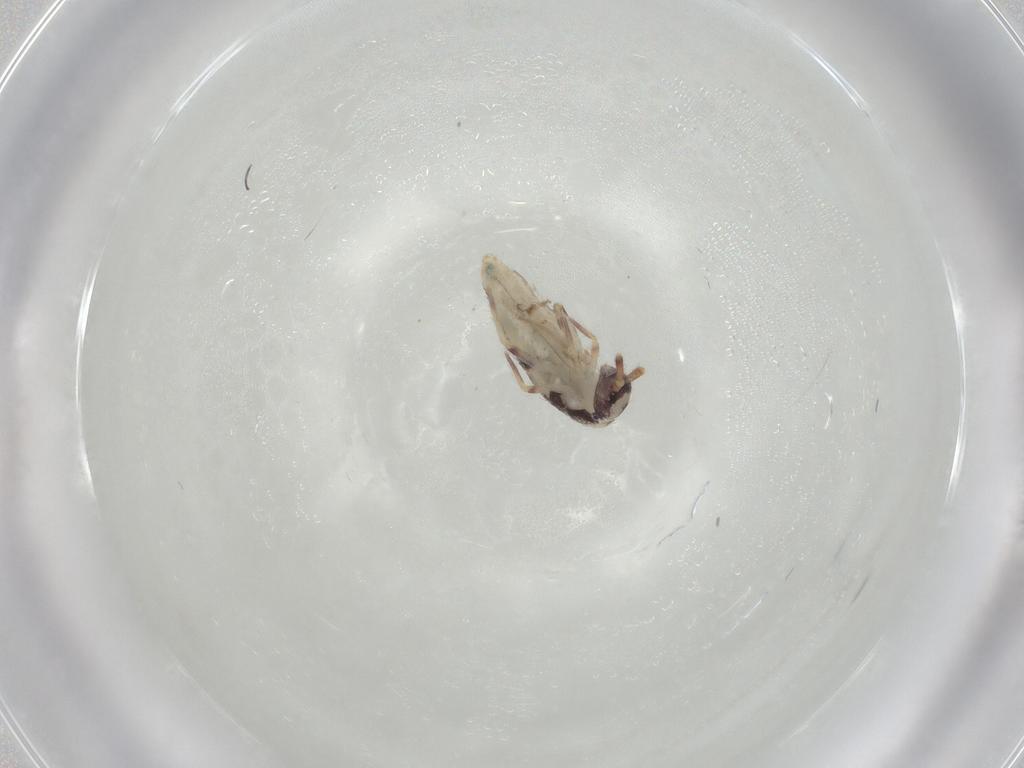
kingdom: Animalia
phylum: Arthropoda
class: Collembola
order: Entomobryomorpha
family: Entomobryidae
